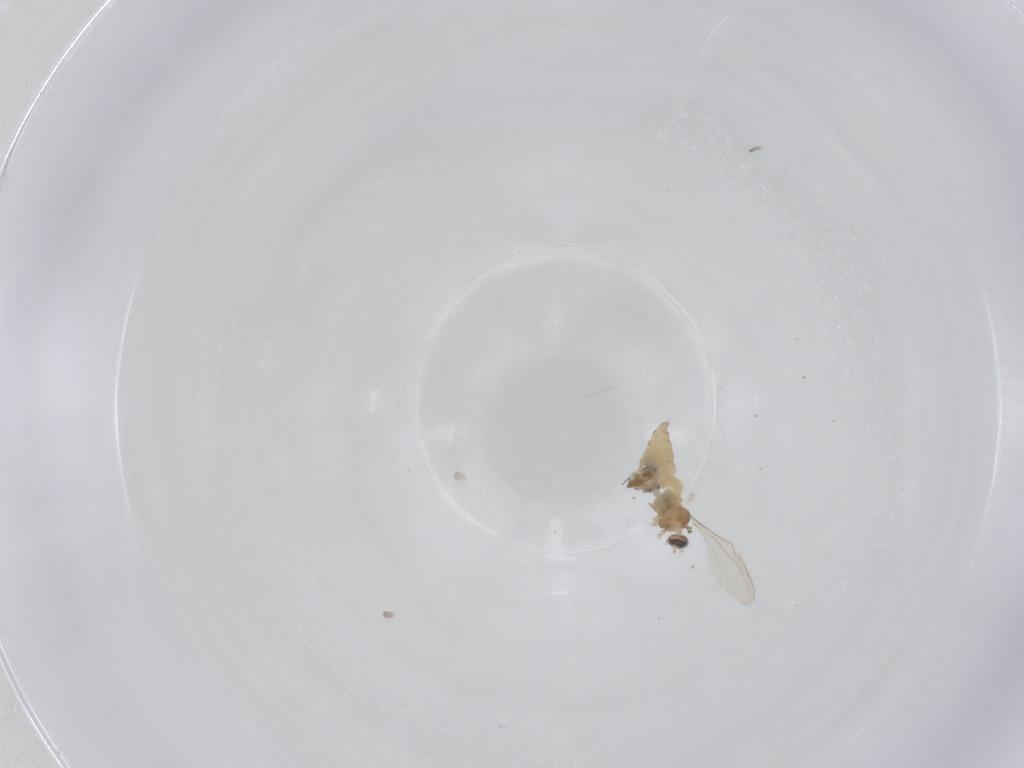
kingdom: Animalia
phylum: Arthropoda
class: Insecta
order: Diptera
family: Cecidomyiidae
